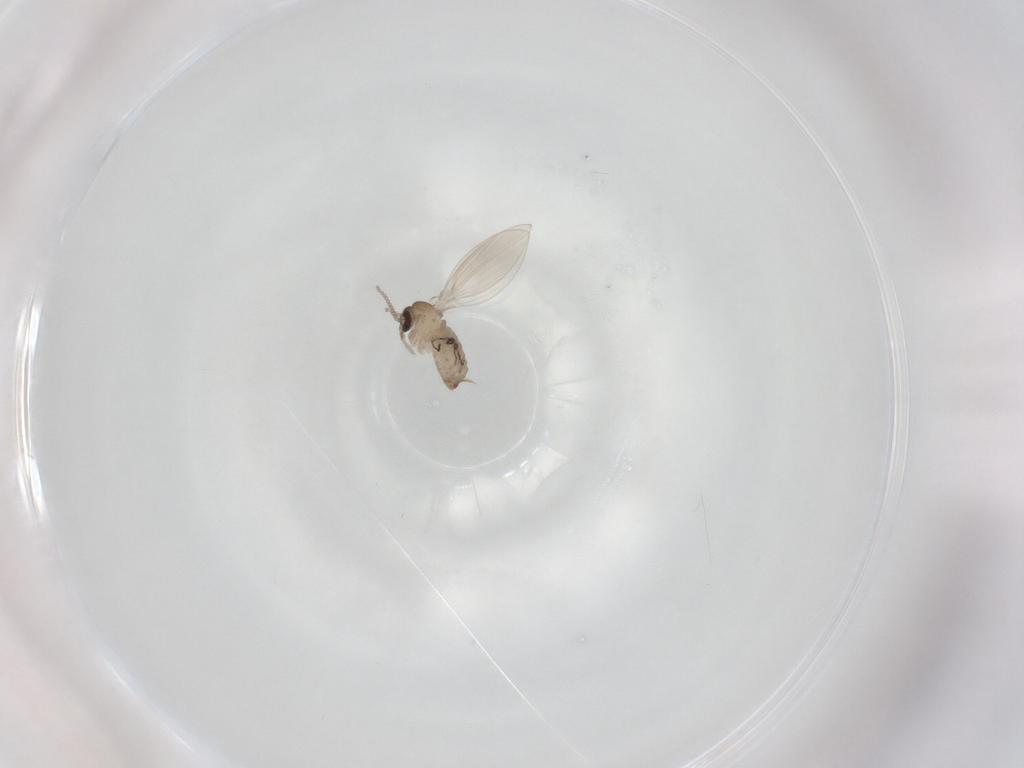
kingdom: Animalia
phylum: Arthropoda
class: Insecta
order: Diptera
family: Psychodidae
